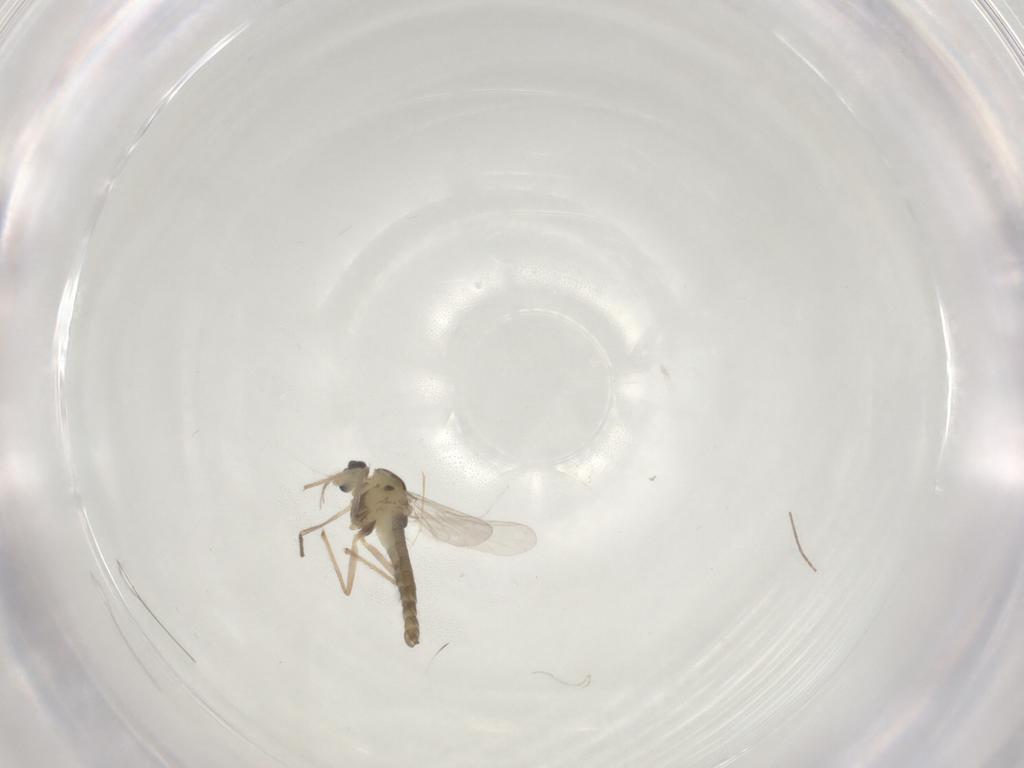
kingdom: Animalia
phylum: Arthropoda
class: Insecta
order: Diptera
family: Chironomidae
